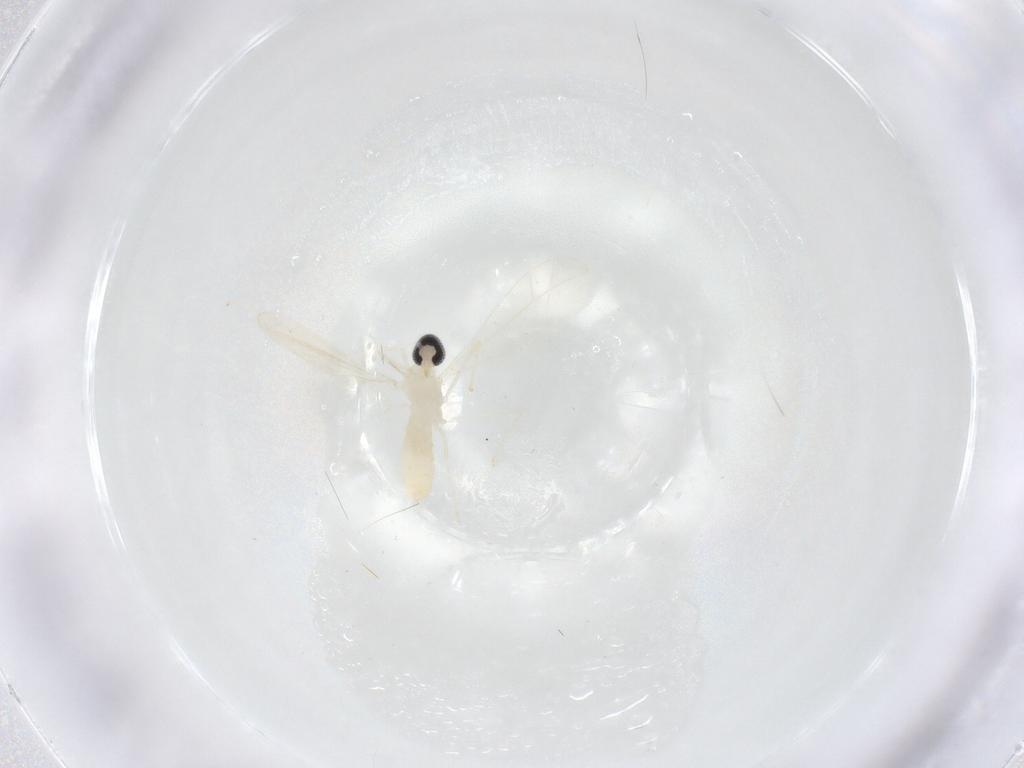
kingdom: Animalia
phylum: Arthropoda
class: Insecta
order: Diptera
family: Cecidomyiidae
